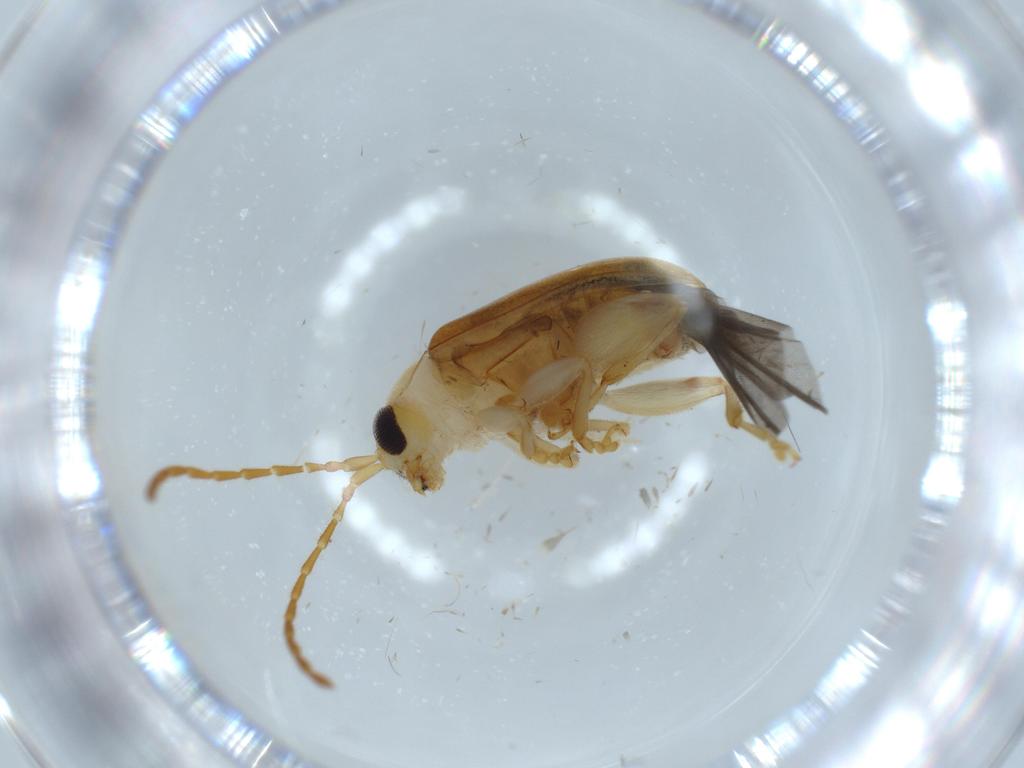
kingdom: Animalia
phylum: Arthropoda
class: Insecta
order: Coleoptera
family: Chrysomelidae
